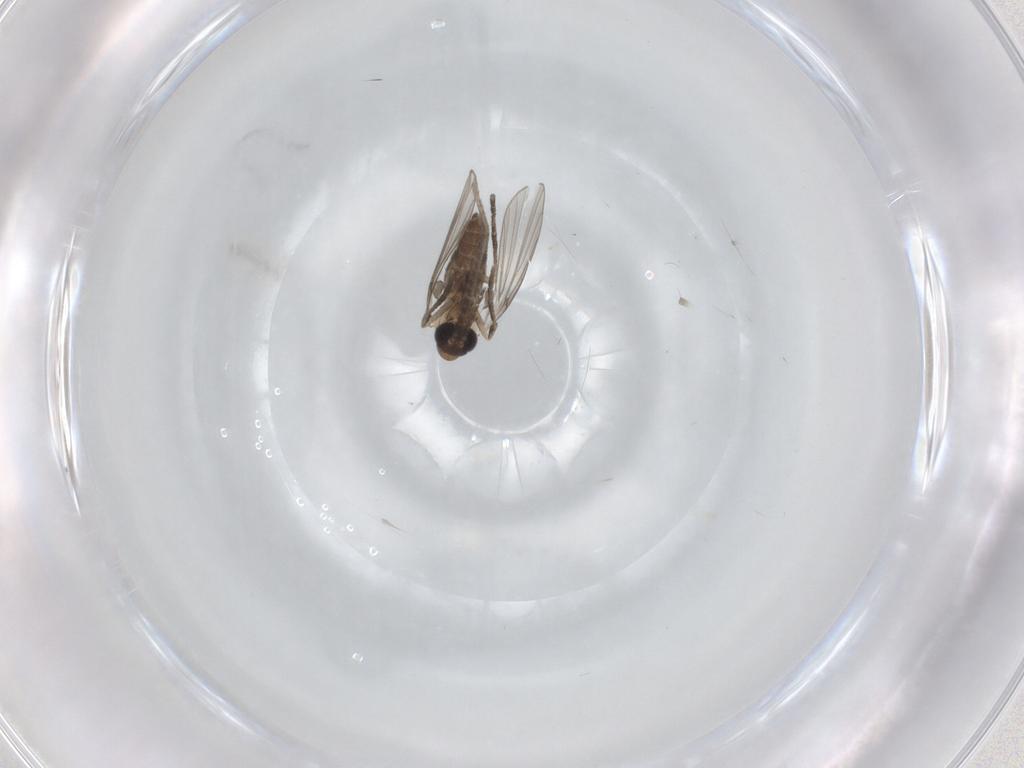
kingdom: Animalia
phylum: Arthropoda
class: Insecta
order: Diptera
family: Psychodidae
